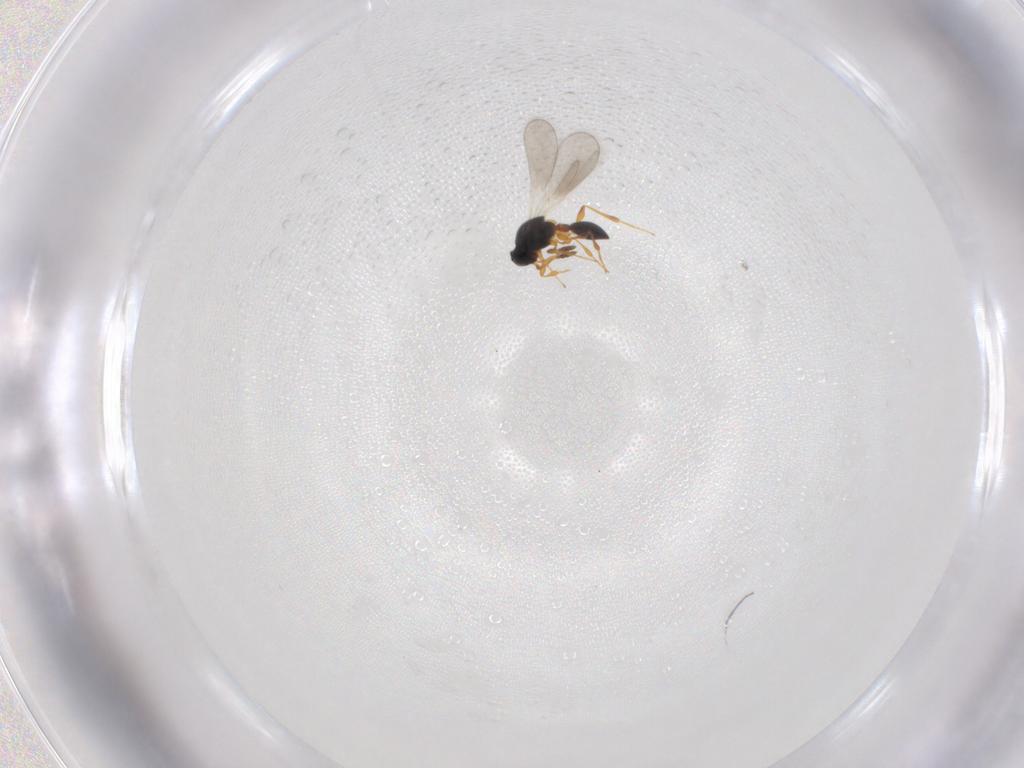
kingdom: Animalia
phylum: Arthropoda
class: Insecta
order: Hymenoptera
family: Platygastridae
